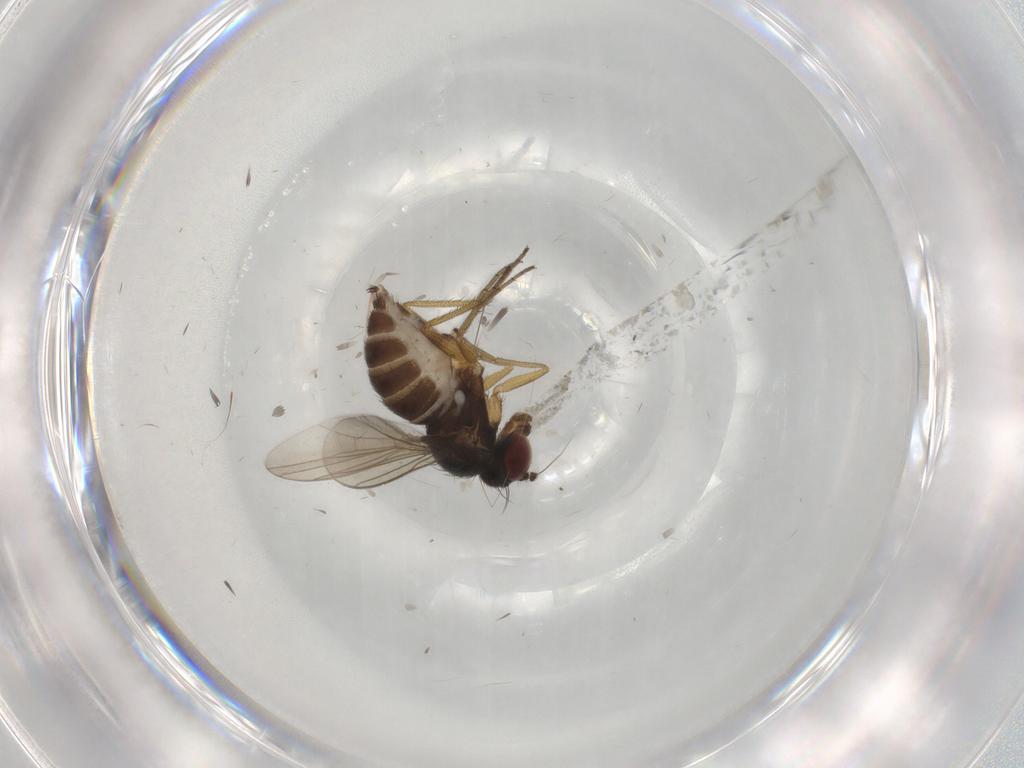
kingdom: Animalia
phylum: Arthropoda
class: Insecta
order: Diptera
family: Dolichopodidae
